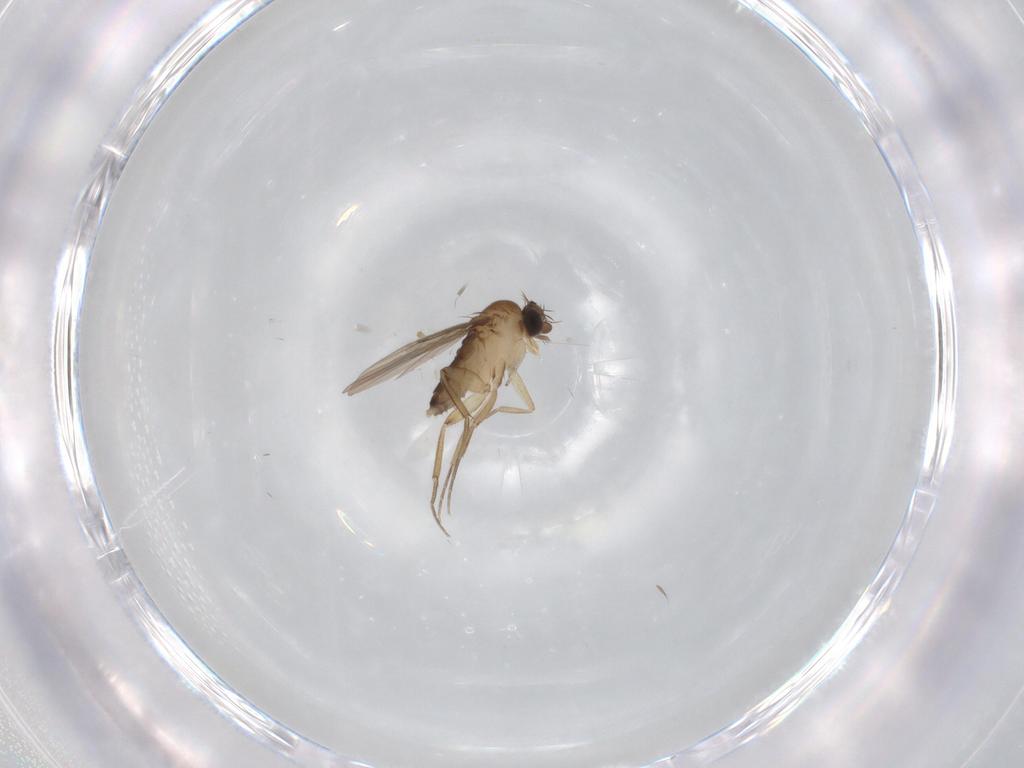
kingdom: Animalia
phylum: Arthropoda
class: Insecta
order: Diptera
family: Phoridae
